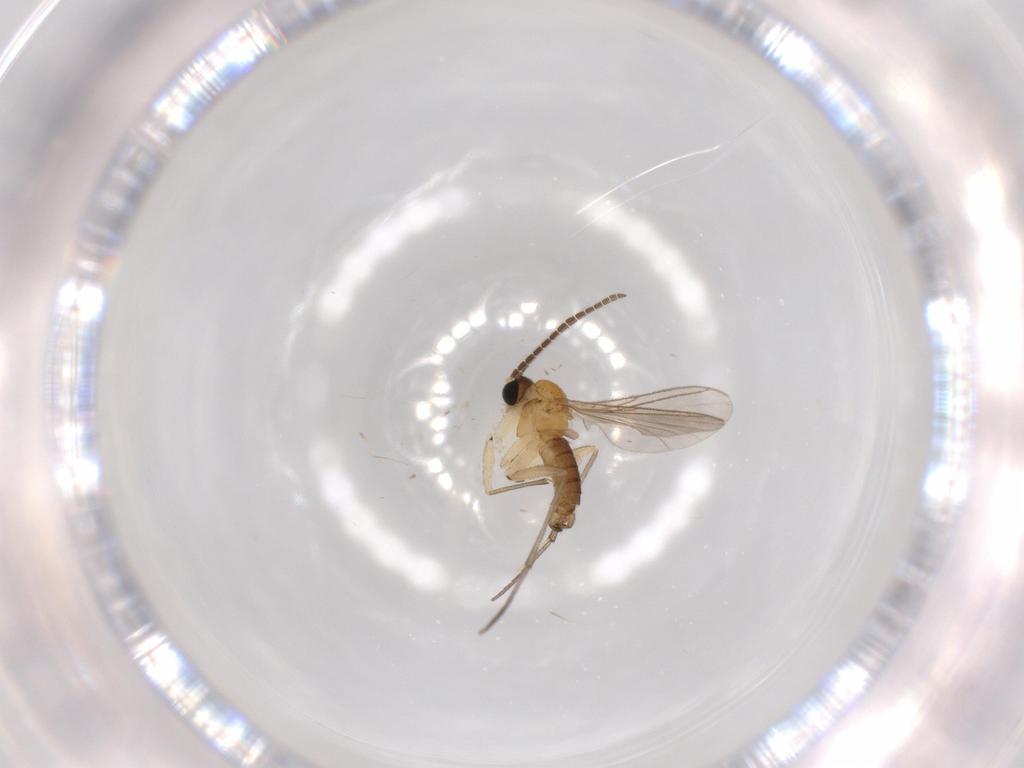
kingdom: Animalia
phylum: Arthropoda
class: Insecta
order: Diptera
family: Sciaridae
